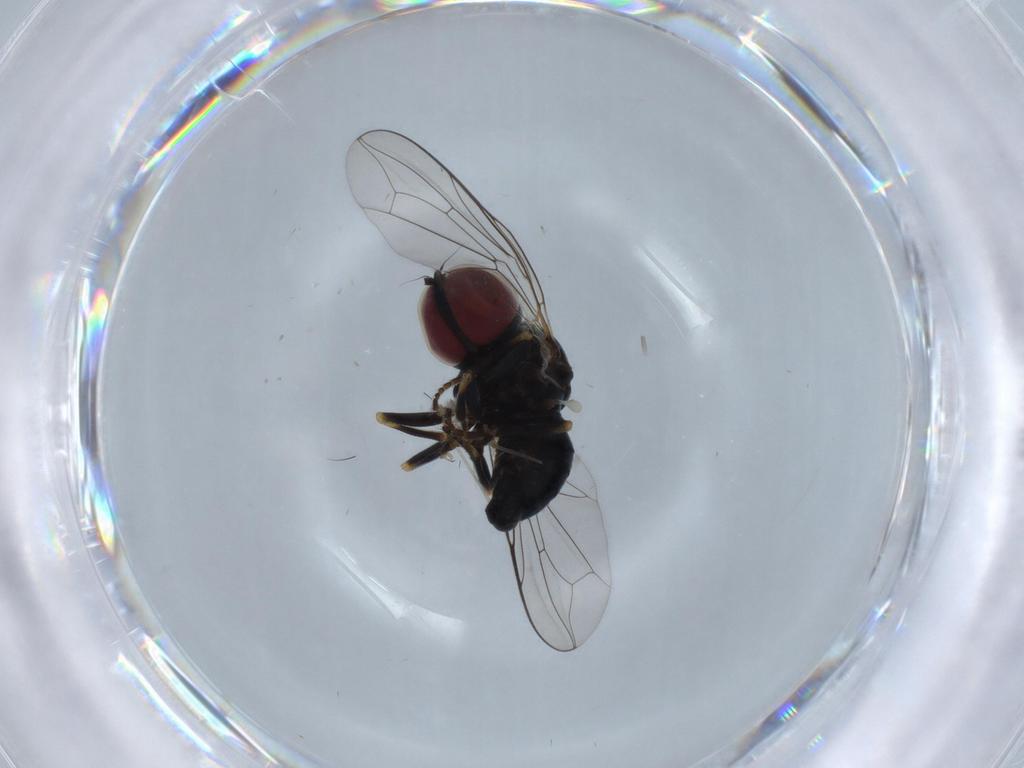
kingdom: Animalia
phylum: Arthropoda
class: Insecta
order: Diptera
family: Pipunculidae
